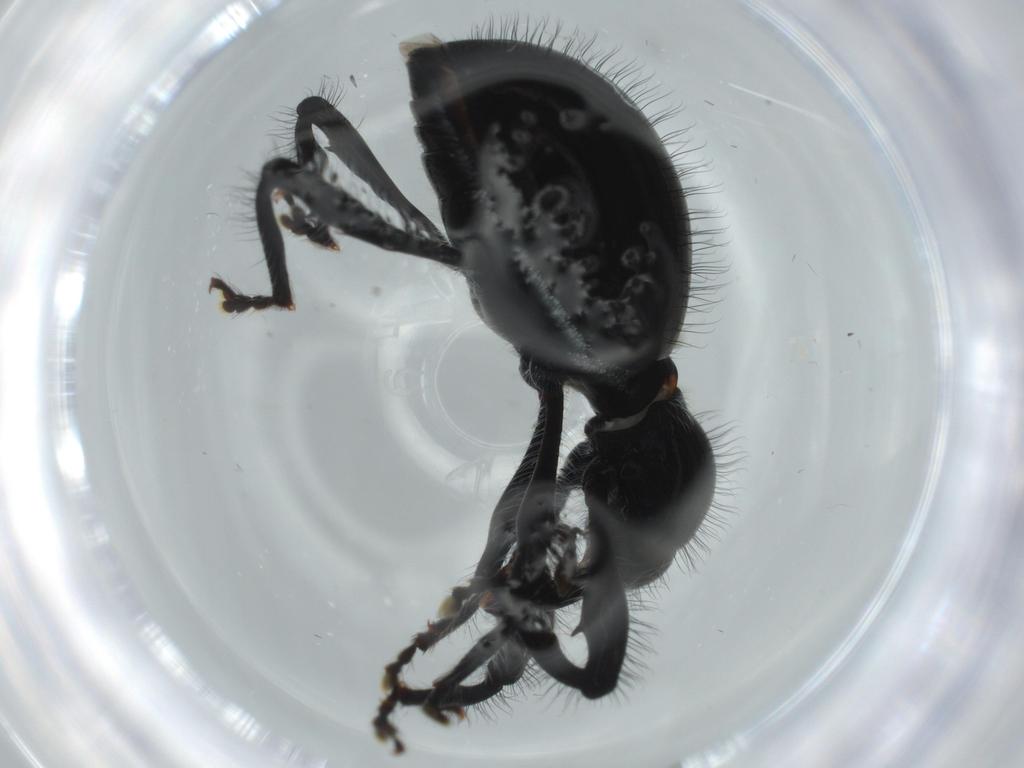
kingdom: Animalia
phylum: Arthropoda
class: Insecta
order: Coleoptera
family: Curculionidae
